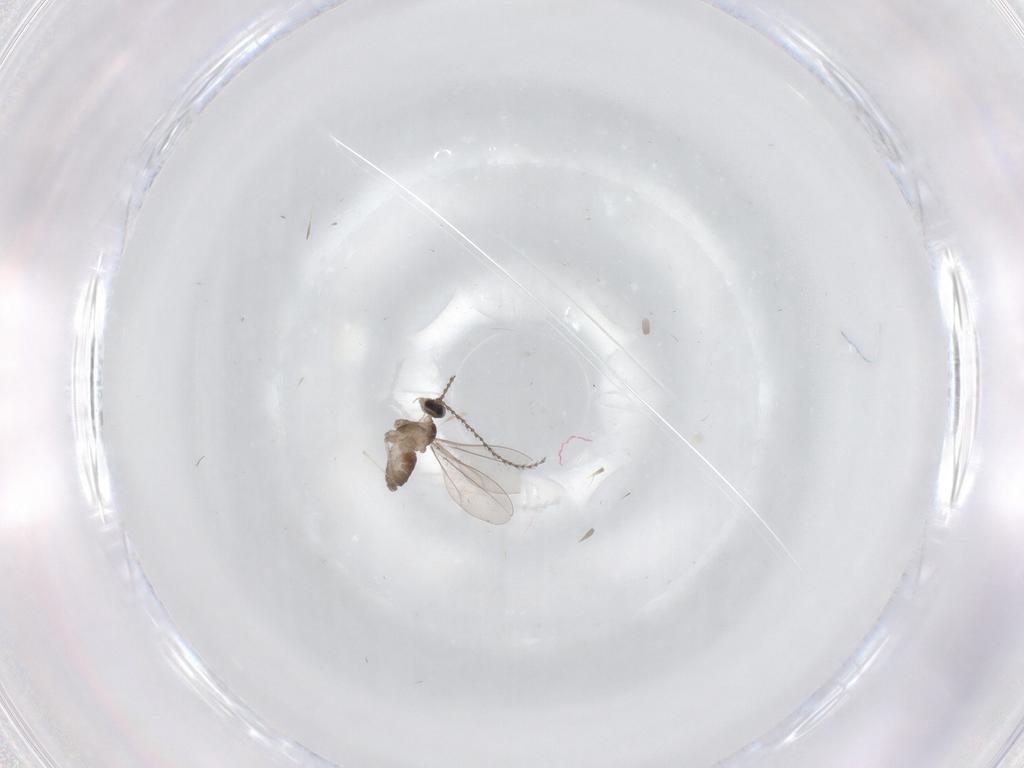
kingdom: Animalia
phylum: Arthropoda
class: Insecta
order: Diptera
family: Cecidomyiidae
